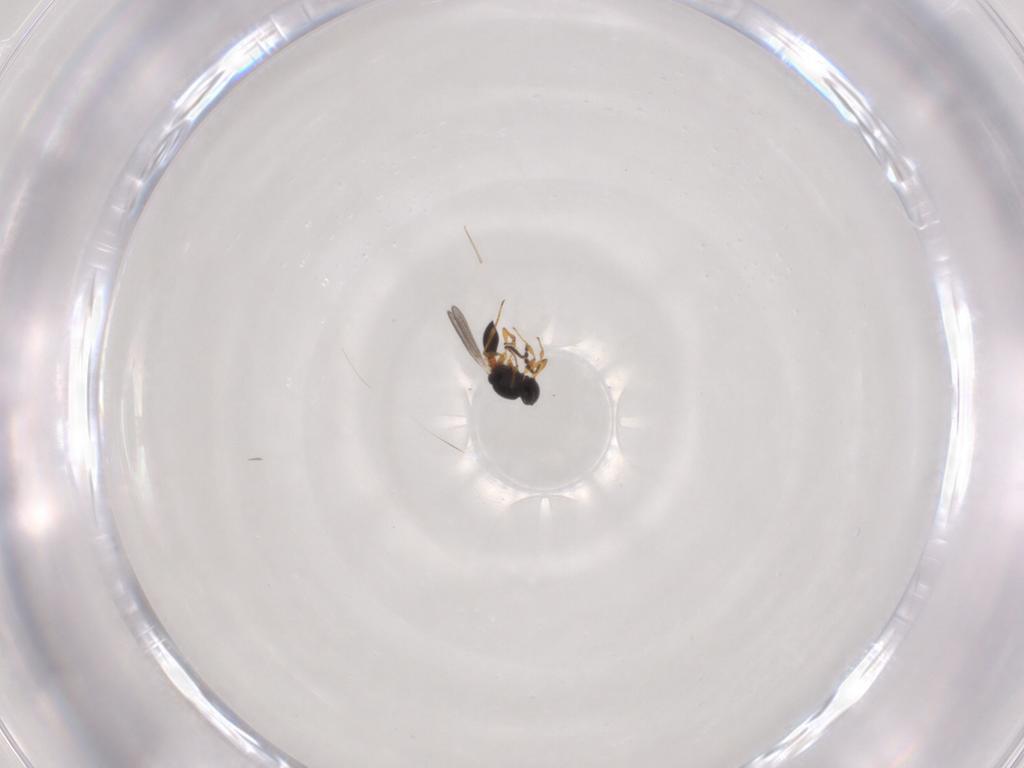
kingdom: Animalia
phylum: Arthropoda
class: Insecta
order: Hymenoptera
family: Platygastridae
